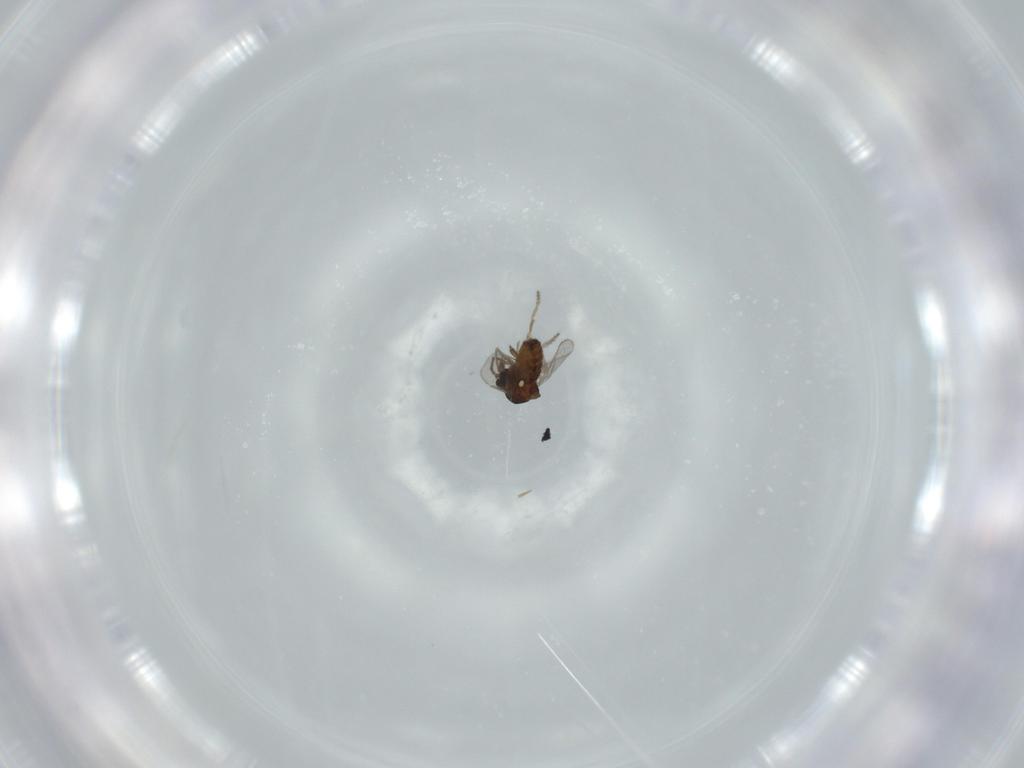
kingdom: Animalia
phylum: Arthropoda
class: Insecta
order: Diptera
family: Ceratopogonidae
